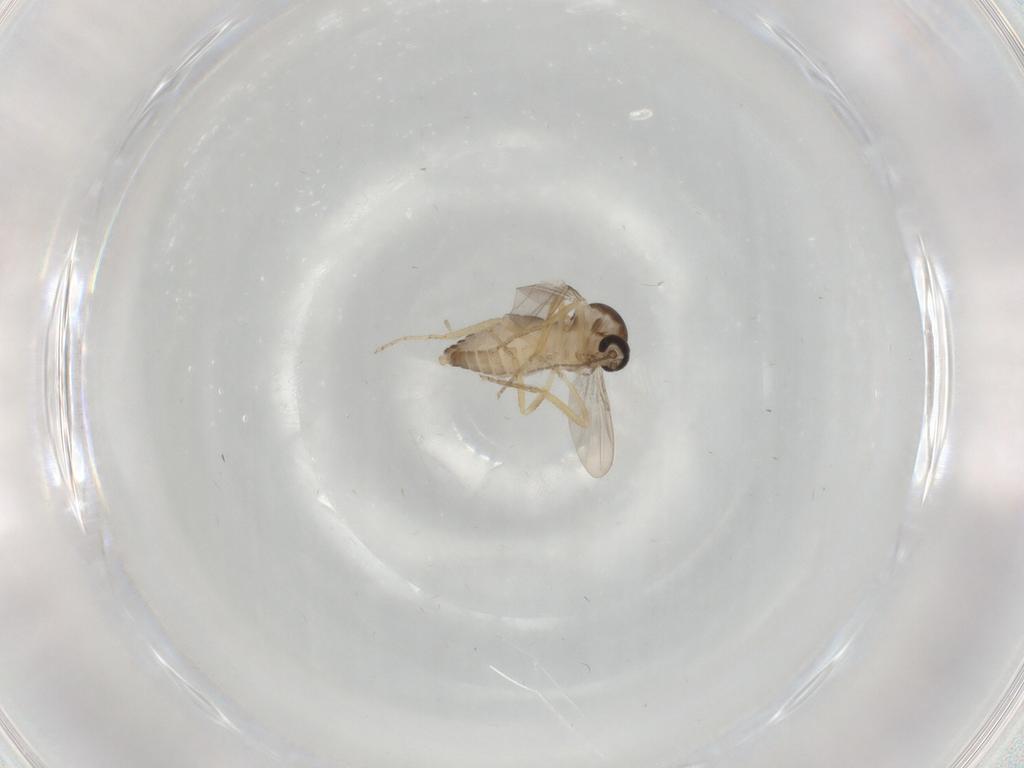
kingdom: Animalia
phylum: Arthropoda
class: Insecta
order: Diptera
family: Ceratopogonidae
